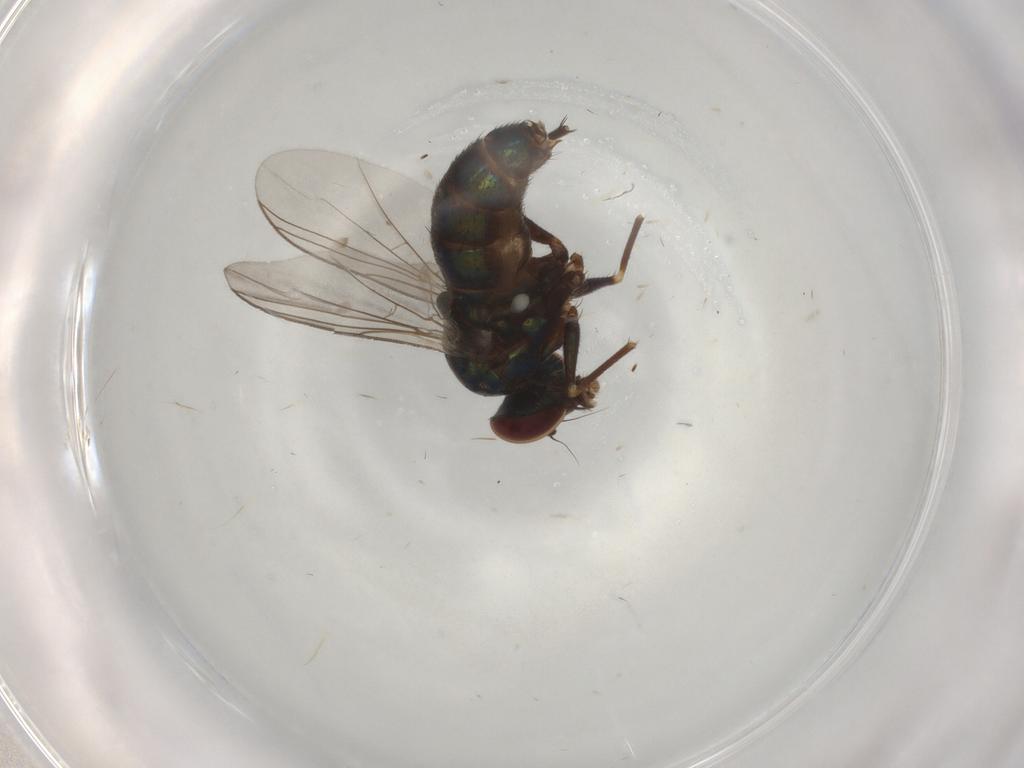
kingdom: Animalia
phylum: Arthropoda
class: Insecta
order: Diptera
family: Dolichopodidae
